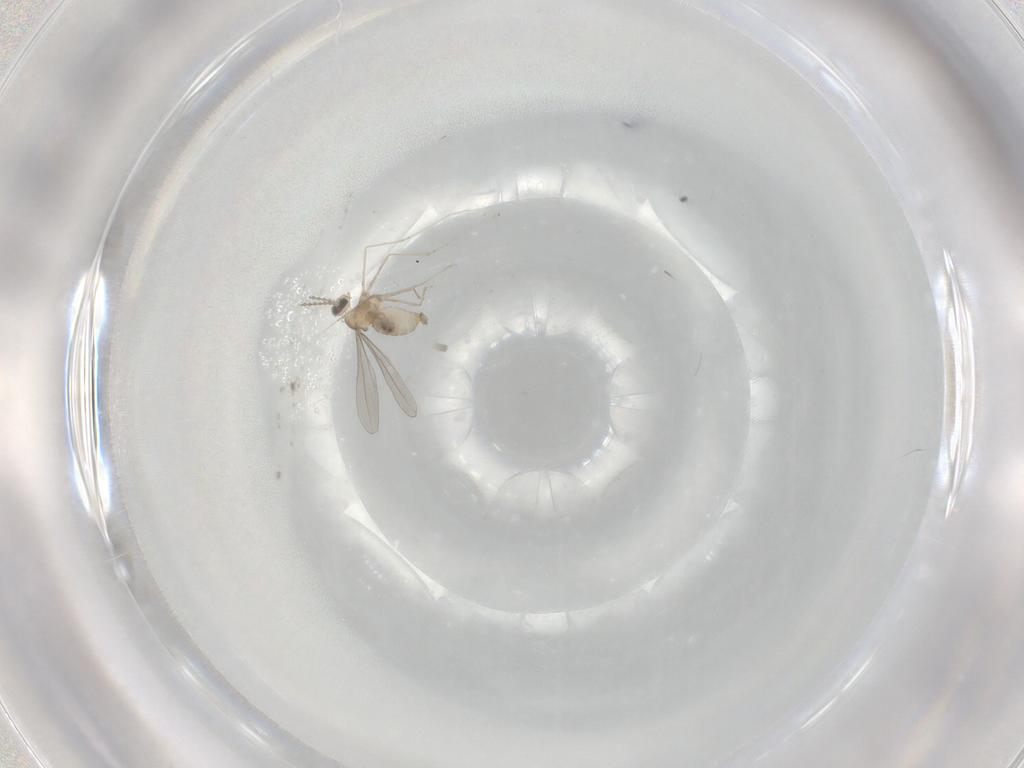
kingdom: Animalia
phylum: Arthropoda
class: Insecta
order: Diptera
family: Cecidomyiidae
